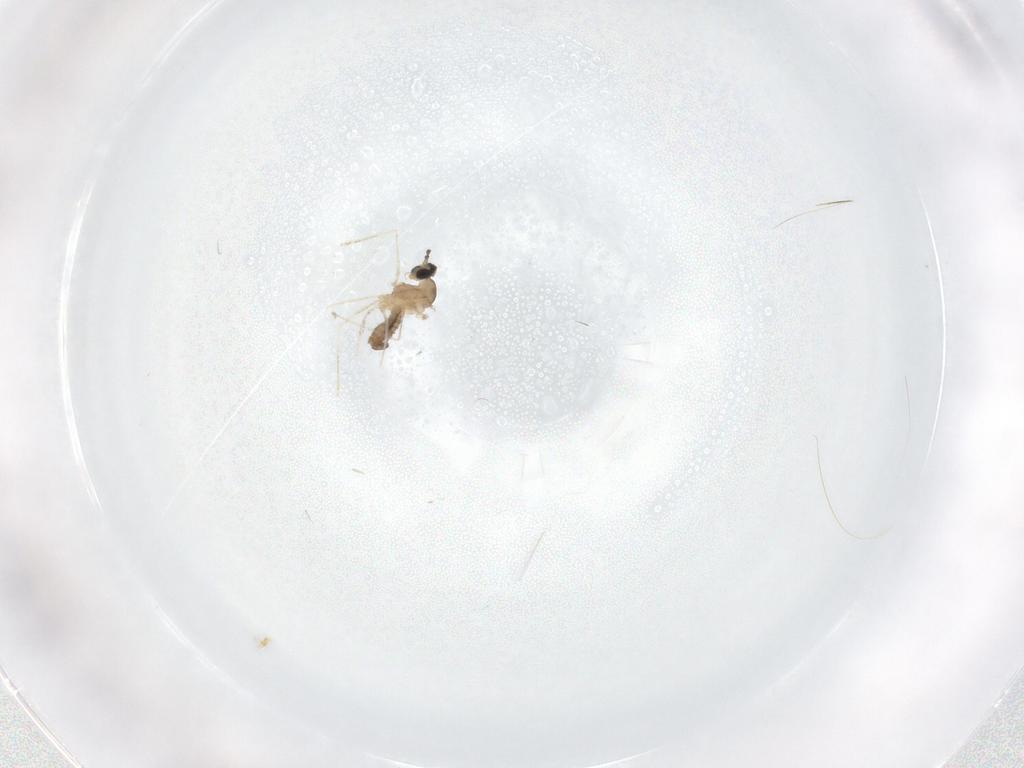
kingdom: Animalia
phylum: Arthropoda
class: Insecta
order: Diptera
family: Cecidomyiidae
